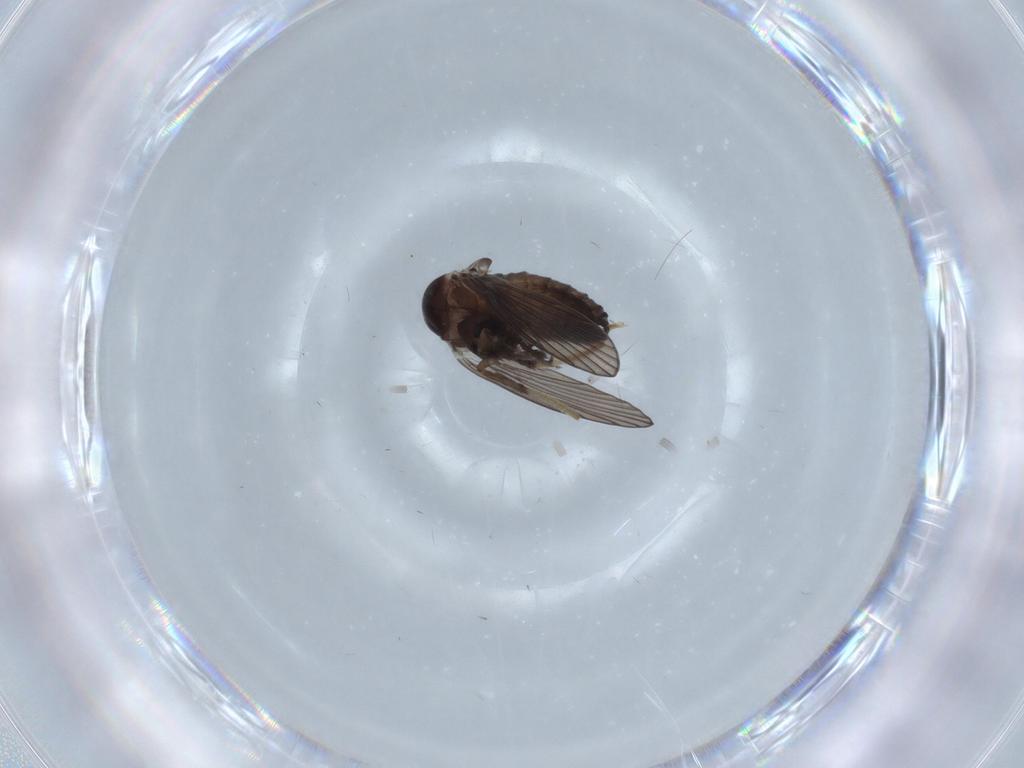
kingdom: Animalia
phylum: Arthropoda
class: Insecta
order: Diptera
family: Chironomidae
